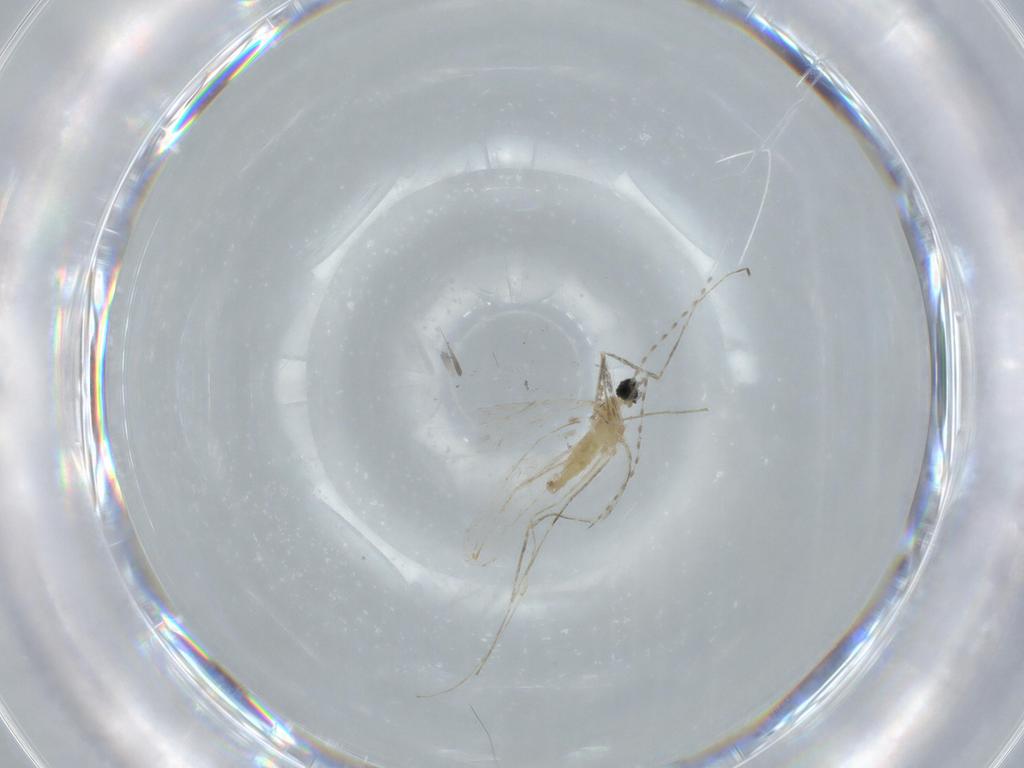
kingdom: Animalia
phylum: Arthropoda
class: Insecta
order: Diptera
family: Cecidomyiidae
